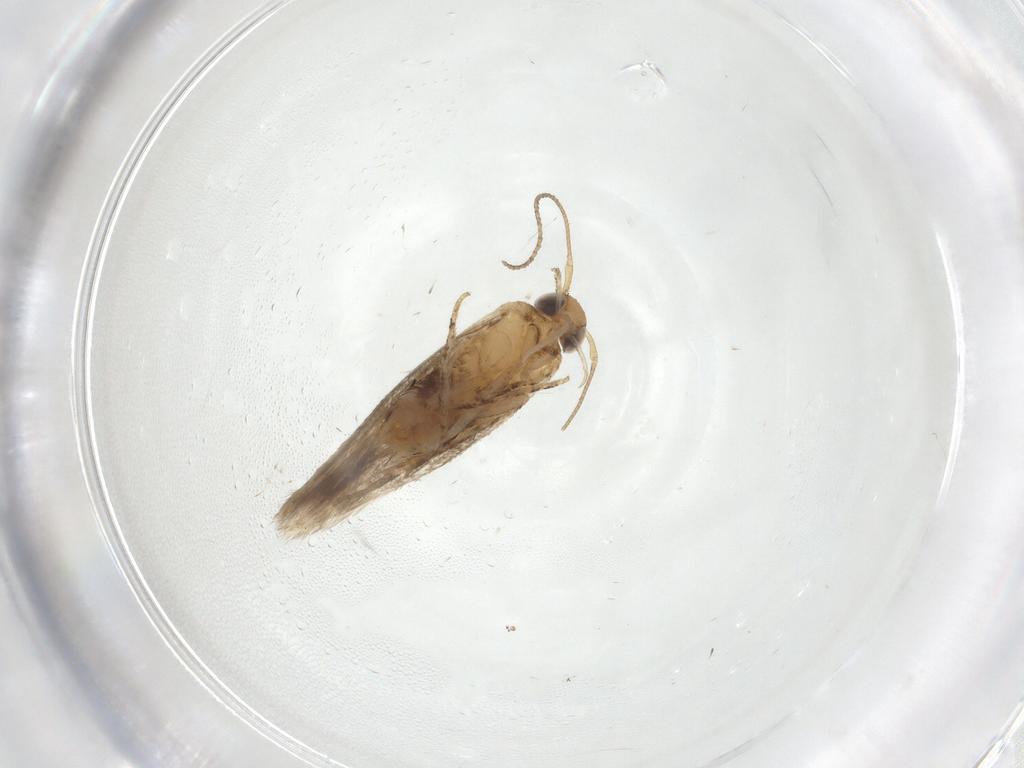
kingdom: Animalia
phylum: Arthropoda
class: Insecta
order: Lepidoptera
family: Crambidae
